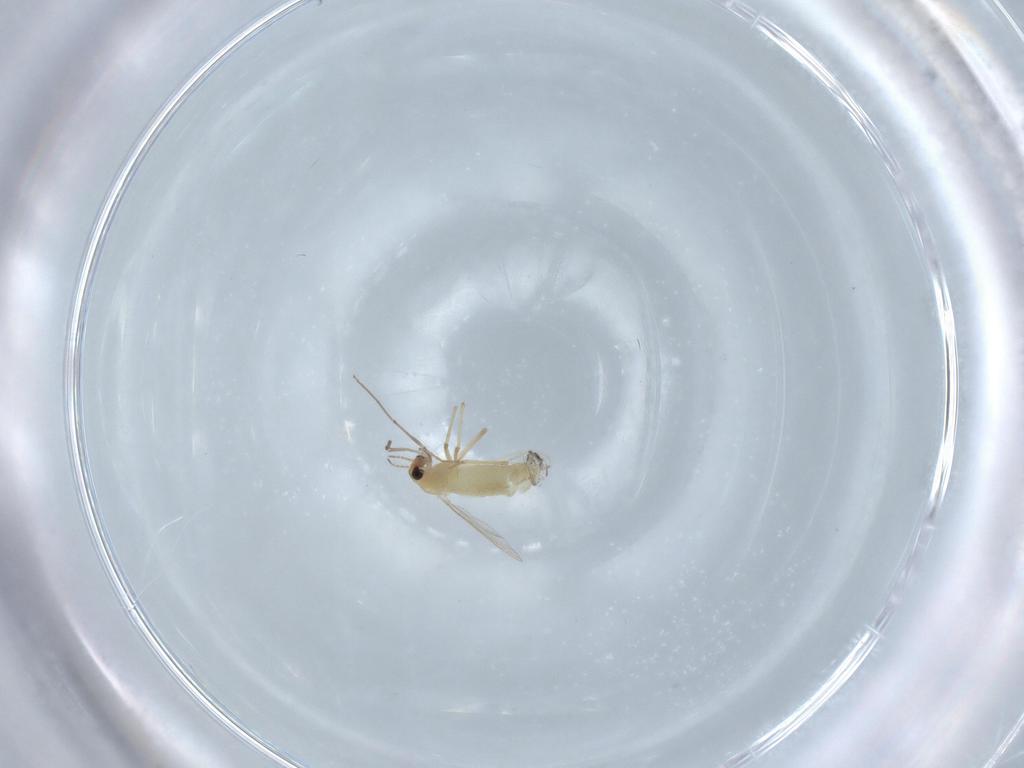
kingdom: Animalia
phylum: Arthropoda
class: Insecta
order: Diptera
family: Chironomidae
